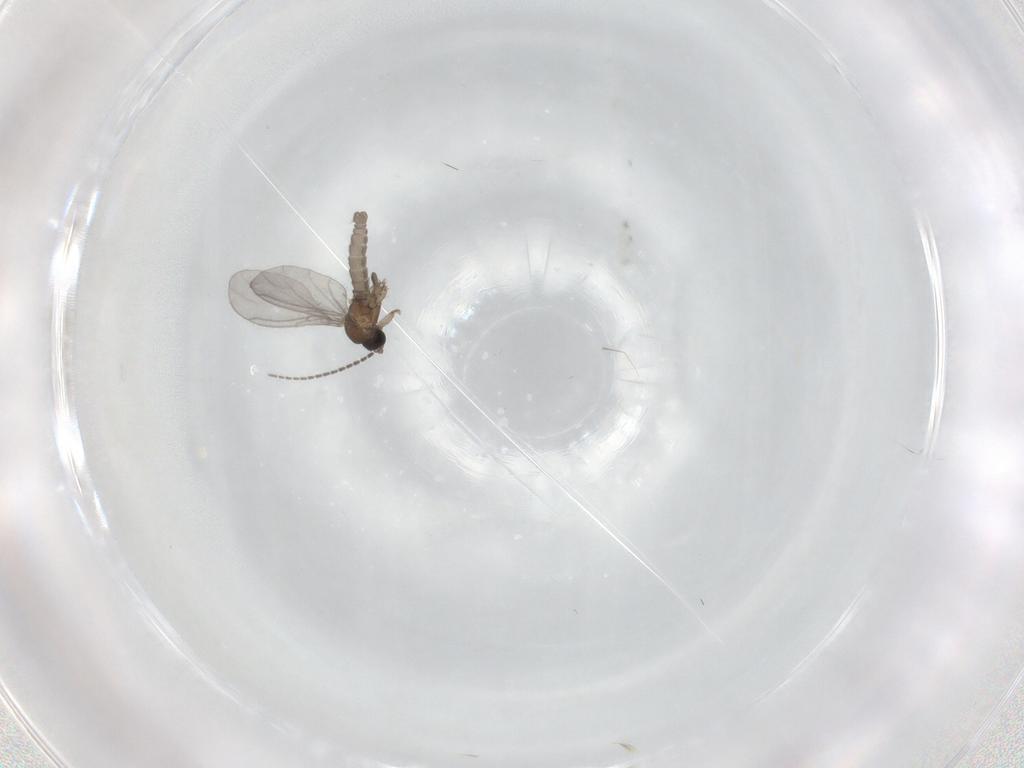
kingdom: Animalia
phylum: Arthropoda
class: Insecta
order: Diptera
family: Sciaridae
